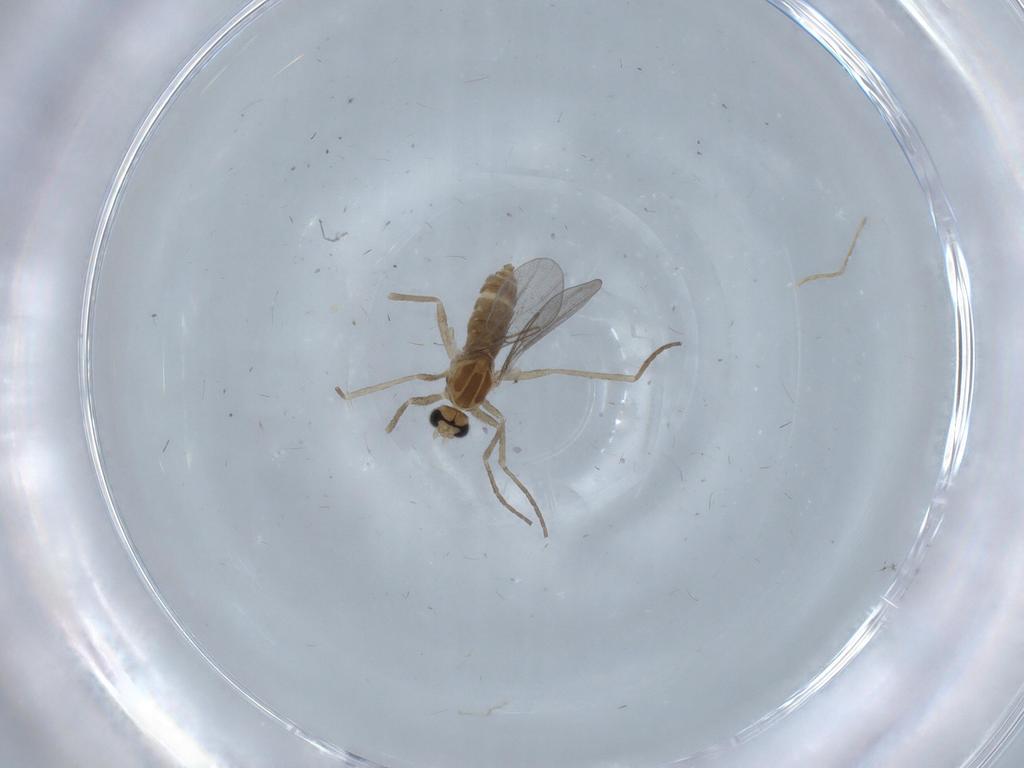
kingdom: Animalia
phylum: Arthropoda
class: Insecta
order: Diptera
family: Cecidomyiidae
